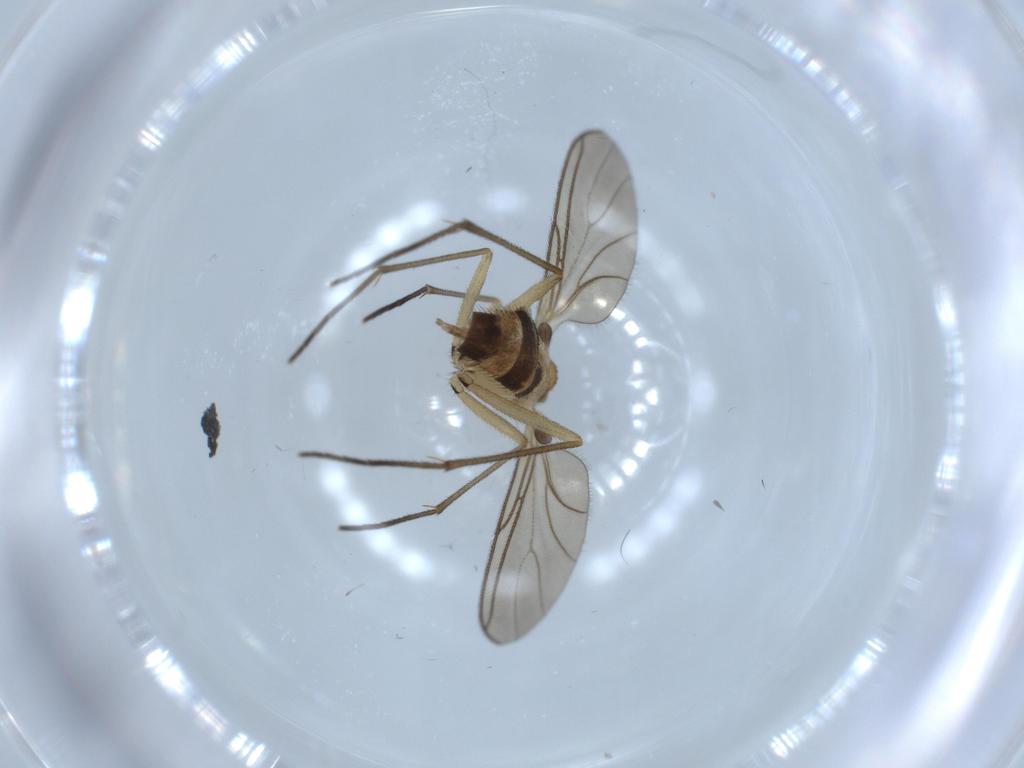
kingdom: Animalia
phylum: Arthropoda
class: Insecta
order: Diptera
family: Sciaridae
